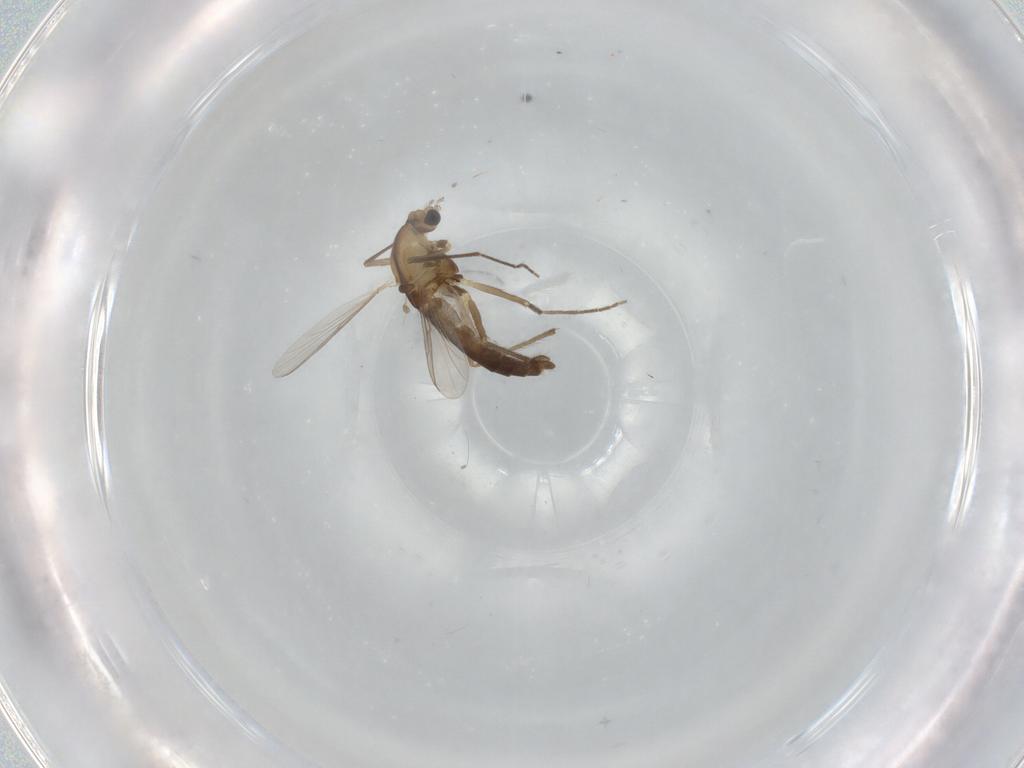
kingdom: Animalia
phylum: Arthropoda
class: Insecta
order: Diptera
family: Chironomidae
